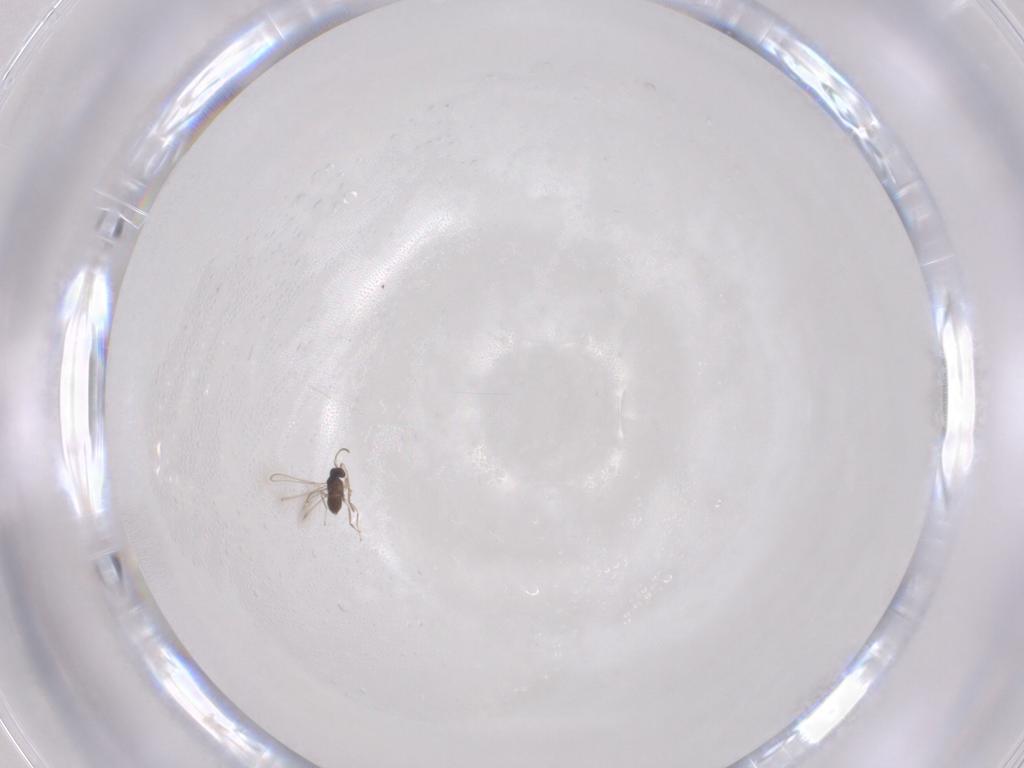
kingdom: Animalia
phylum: Arthropoda
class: Insecta
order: Hymenoptera
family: Mymaridae
